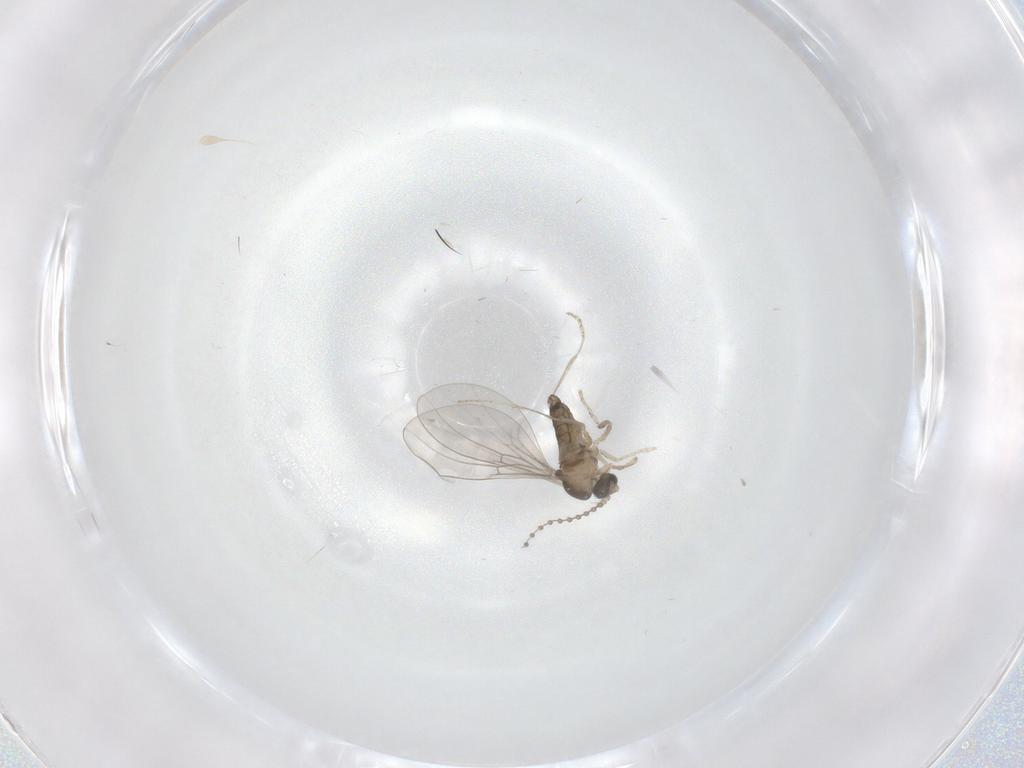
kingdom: Animalia
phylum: Arthropoda
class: Insecta
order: Diptera
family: Cecidomyiidae
